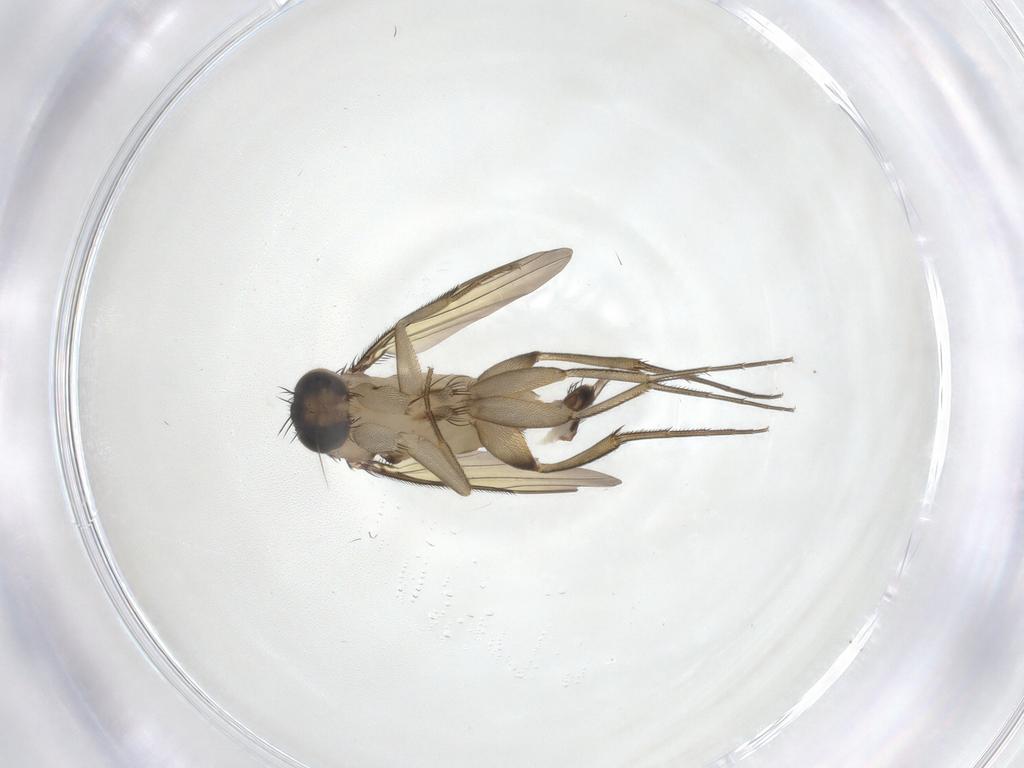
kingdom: Animalia
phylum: Arthropoda
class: Insecta
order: Diptera
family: Phoridae
